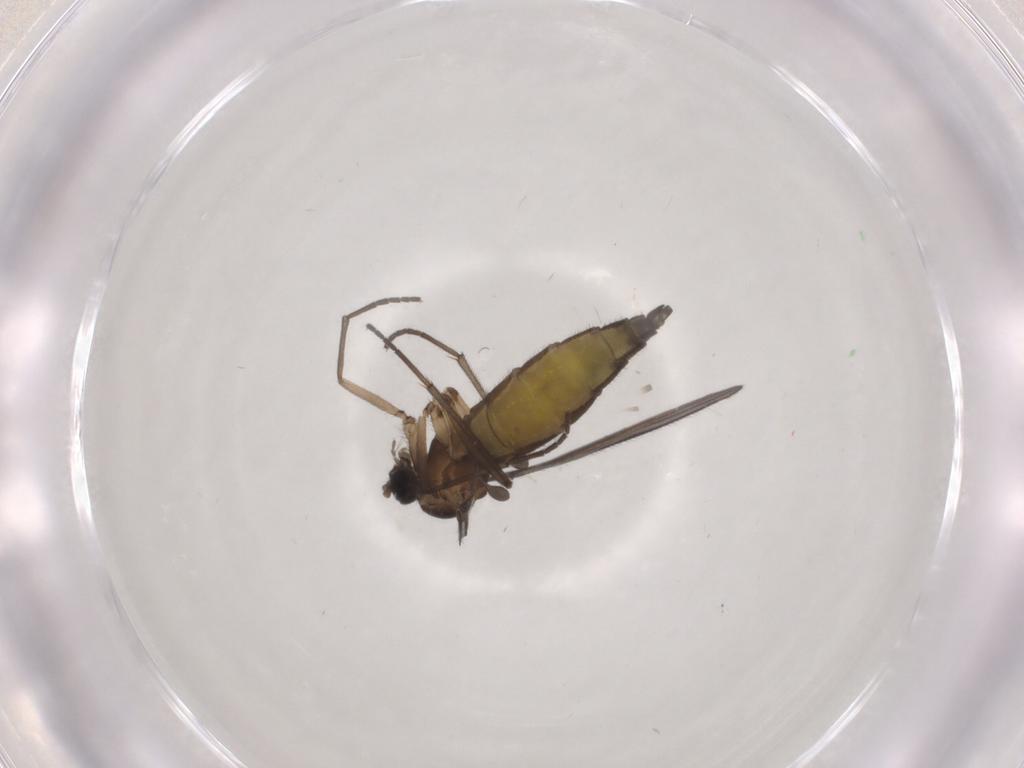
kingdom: Animalia
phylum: Arthropoda
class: Insecta
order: Diptera
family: Sciaridae
